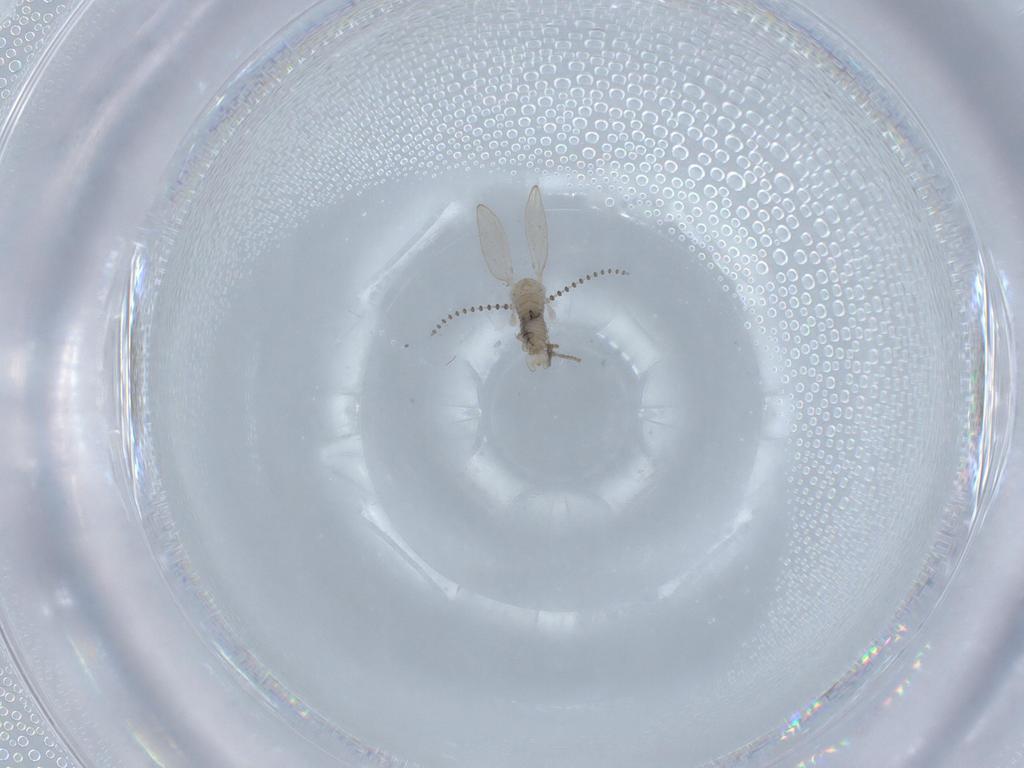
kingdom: Animalia
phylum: Arthropoda
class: Insecta
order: Diptera
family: Psychodidae
